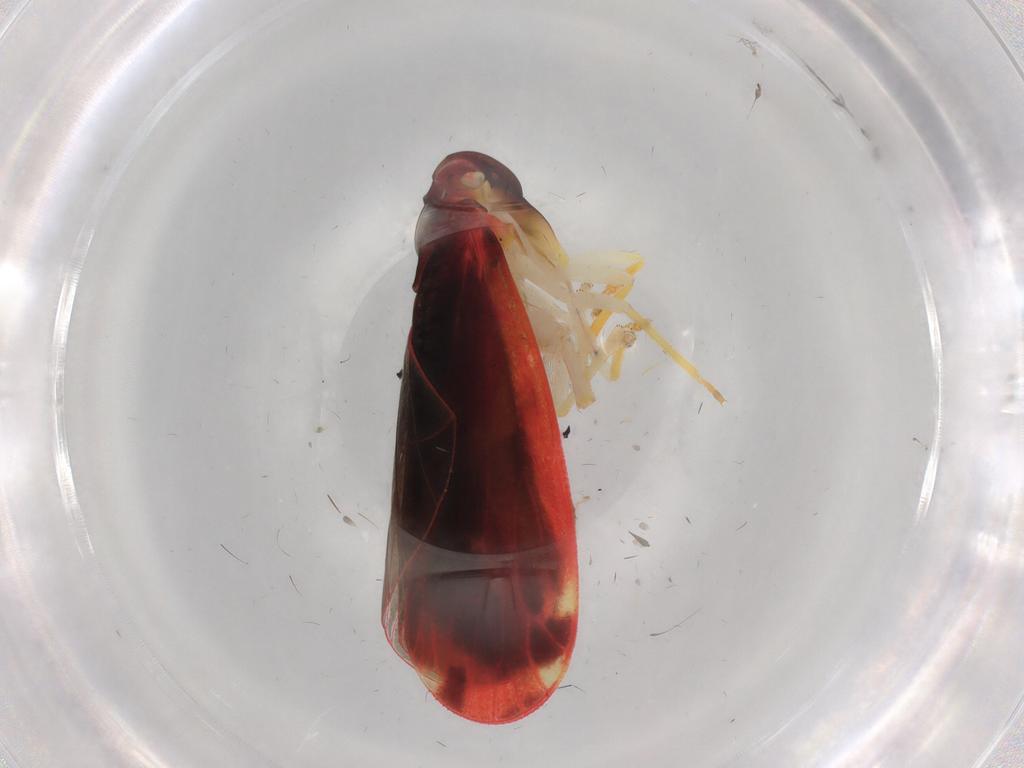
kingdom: Animalia
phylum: Arthropoda
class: Insecta
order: Hemiptera
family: Derbidae
